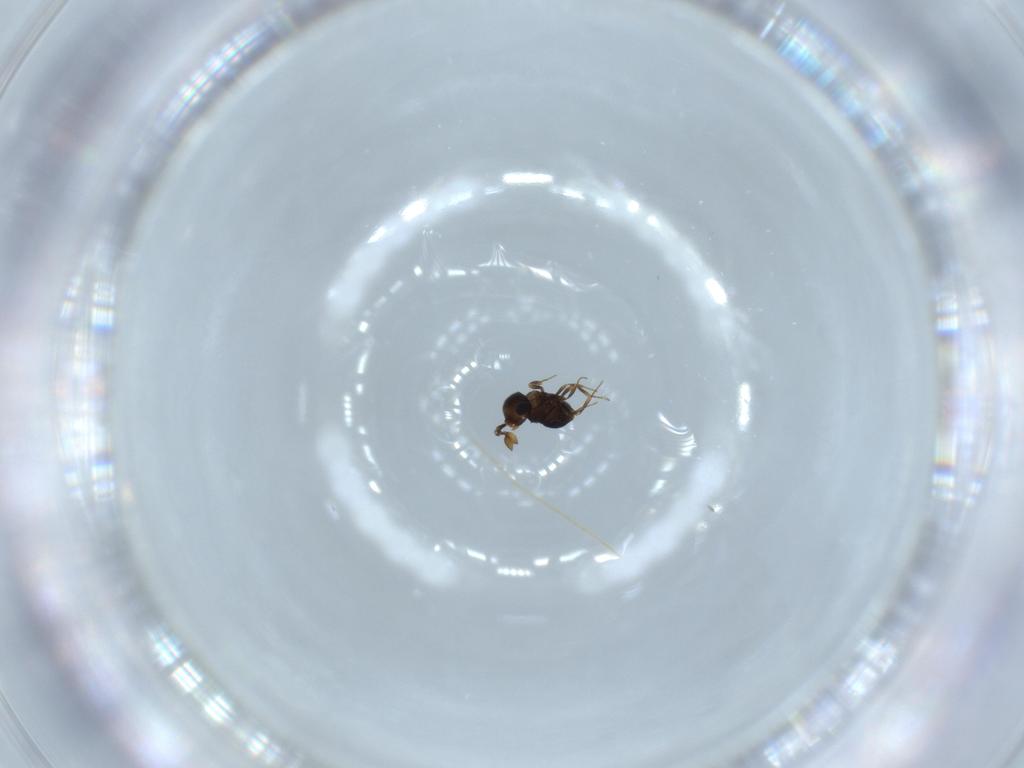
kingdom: Animalia
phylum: Arthropoda
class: Insecta
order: Hymenoptera
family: Scelionidae
